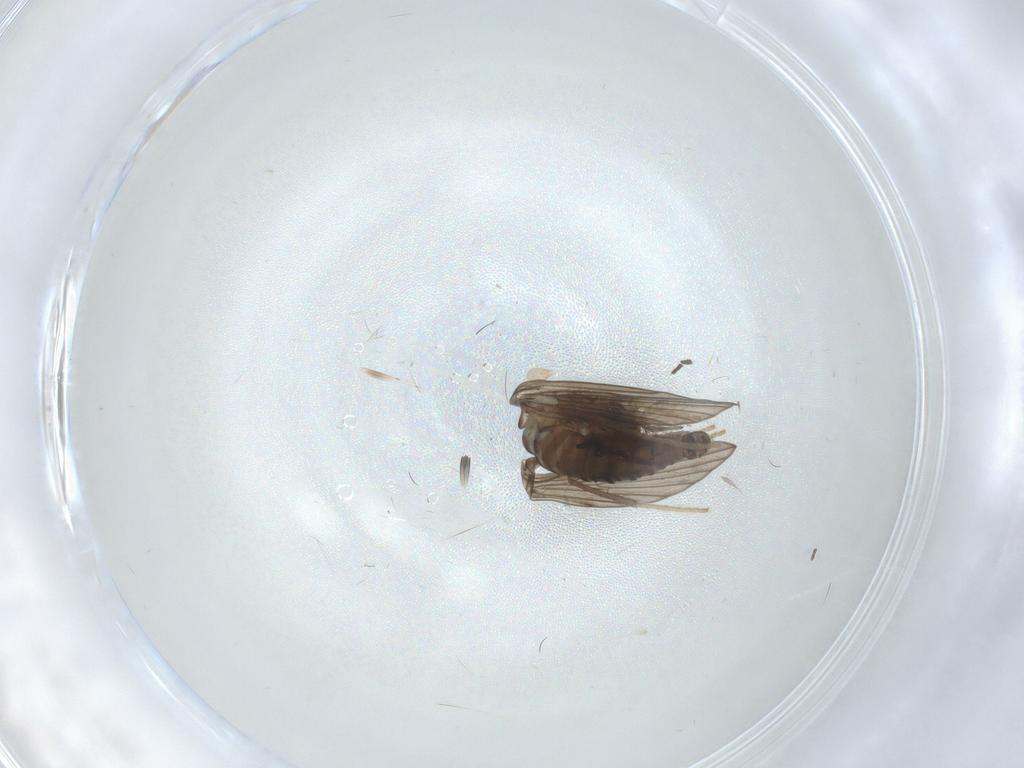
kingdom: Animalia
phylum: Arthropoda
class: Insecta
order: Diptera
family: Psychodidae
